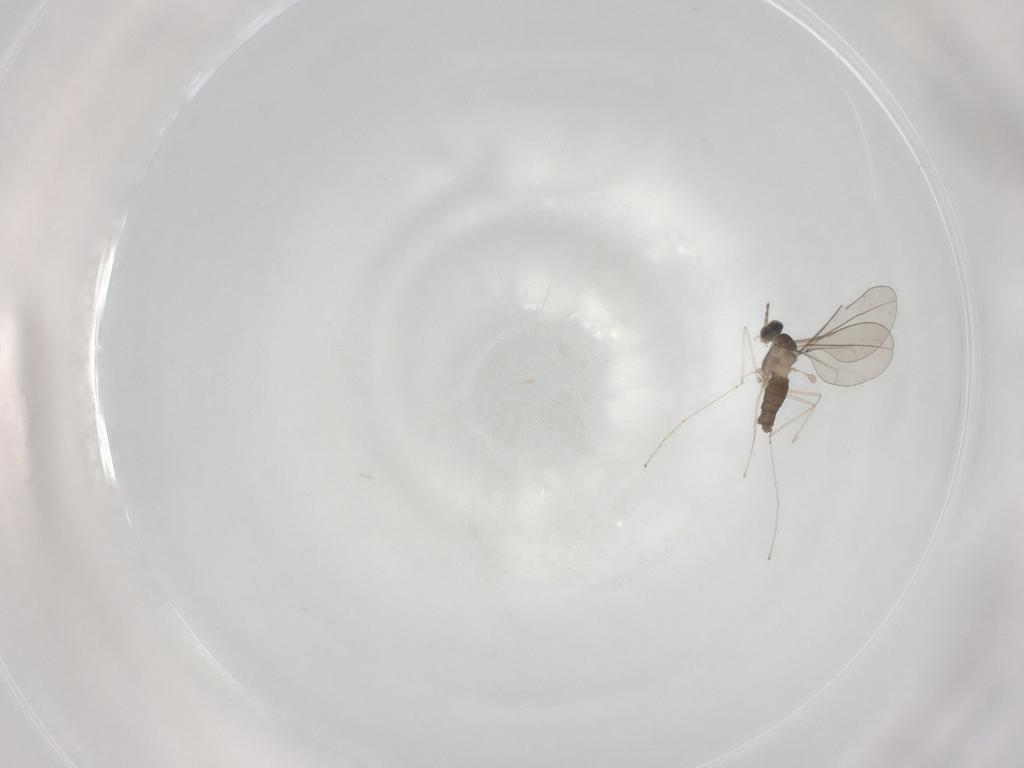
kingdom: Animalia
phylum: Arthropoda
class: Insecta
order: Diptera
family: Cecidomyiidae
